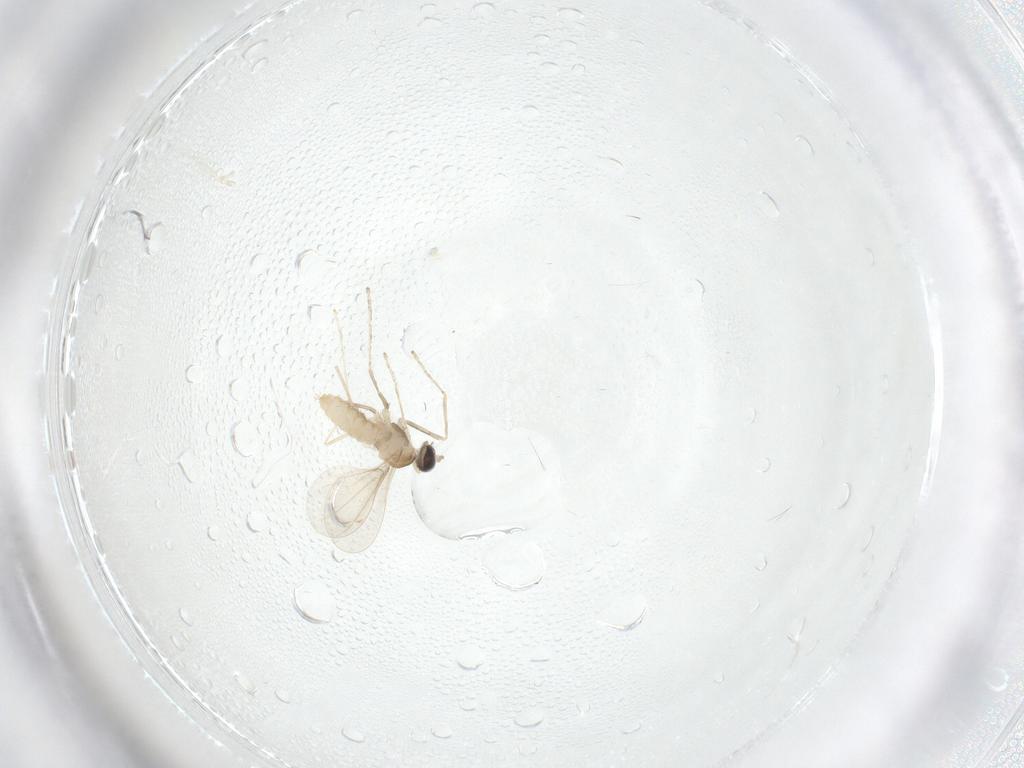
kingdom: Animalia
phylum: Arthropoda
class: Insecta
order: Diptera
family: Cecidomyiidae
